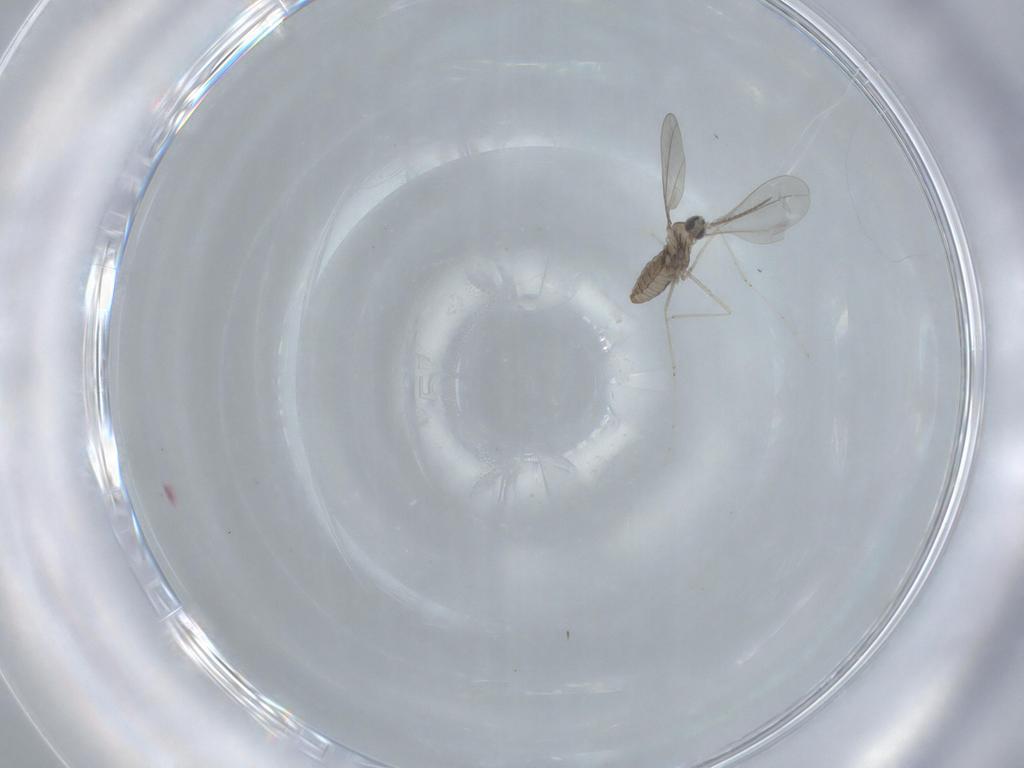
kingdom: Animalia
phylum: Arthropoda
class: Insecta
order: Diptera
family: Cecidomyiidae
